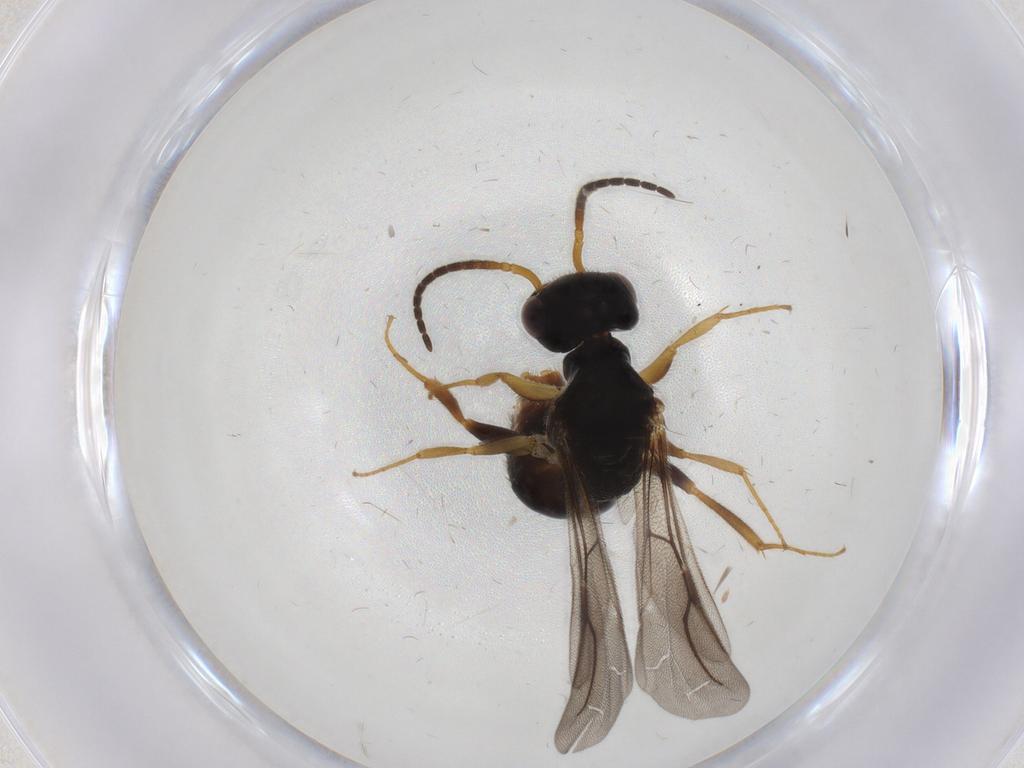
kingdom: Animalia
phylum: Arthropoda
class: Insecta
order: Hymenoptera
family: Bethylidae
